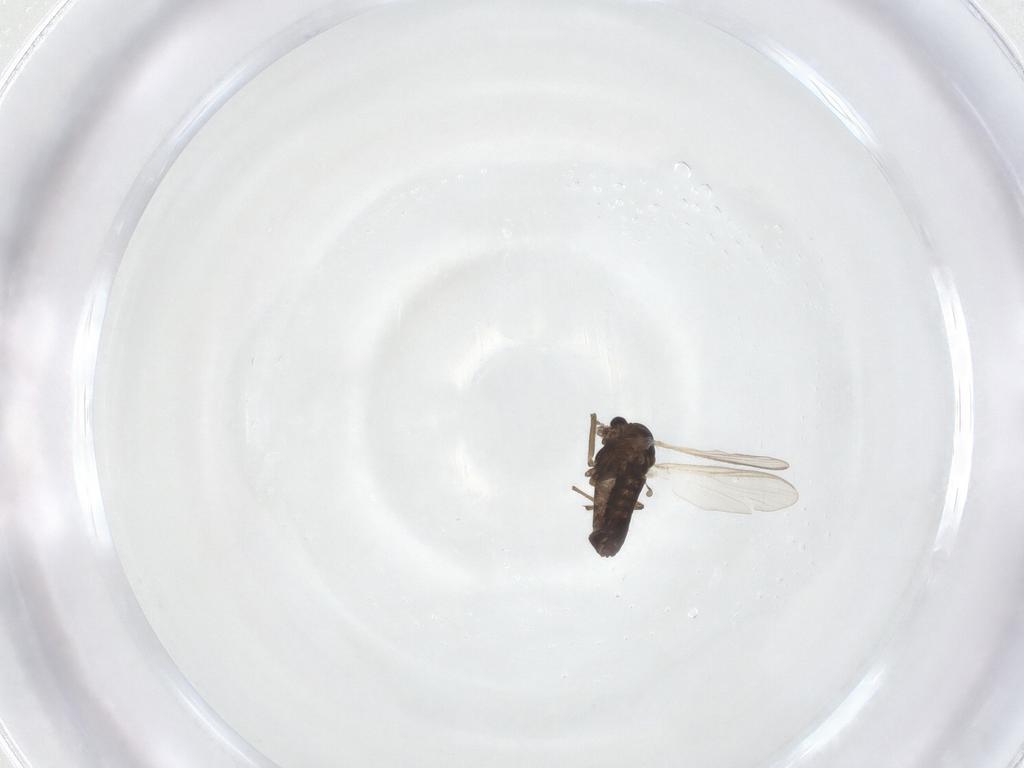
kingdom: Animalia
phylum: Arthropoda
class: Insecta
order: Diptera
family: Chironomidae
